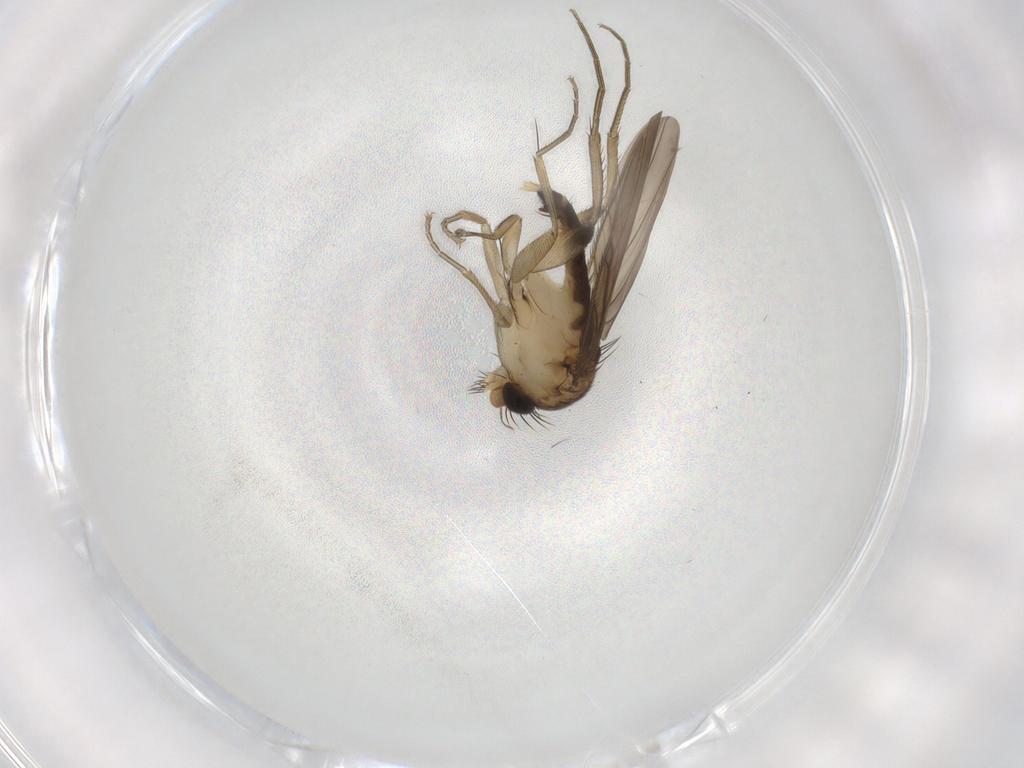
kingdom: Animalia
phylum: Arthropoda
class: Insecta
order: Diptera
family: Phoridae
